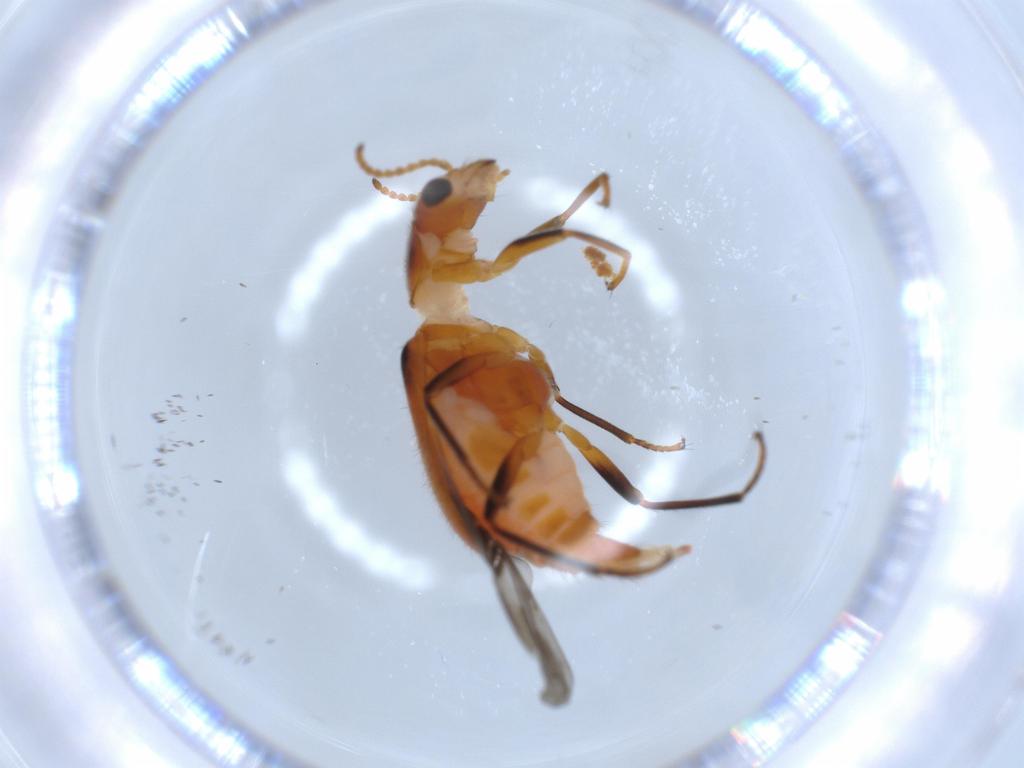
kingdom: Animalia
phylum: Arthropoda
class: Insecta
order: Coleoptera
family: Melyridae
